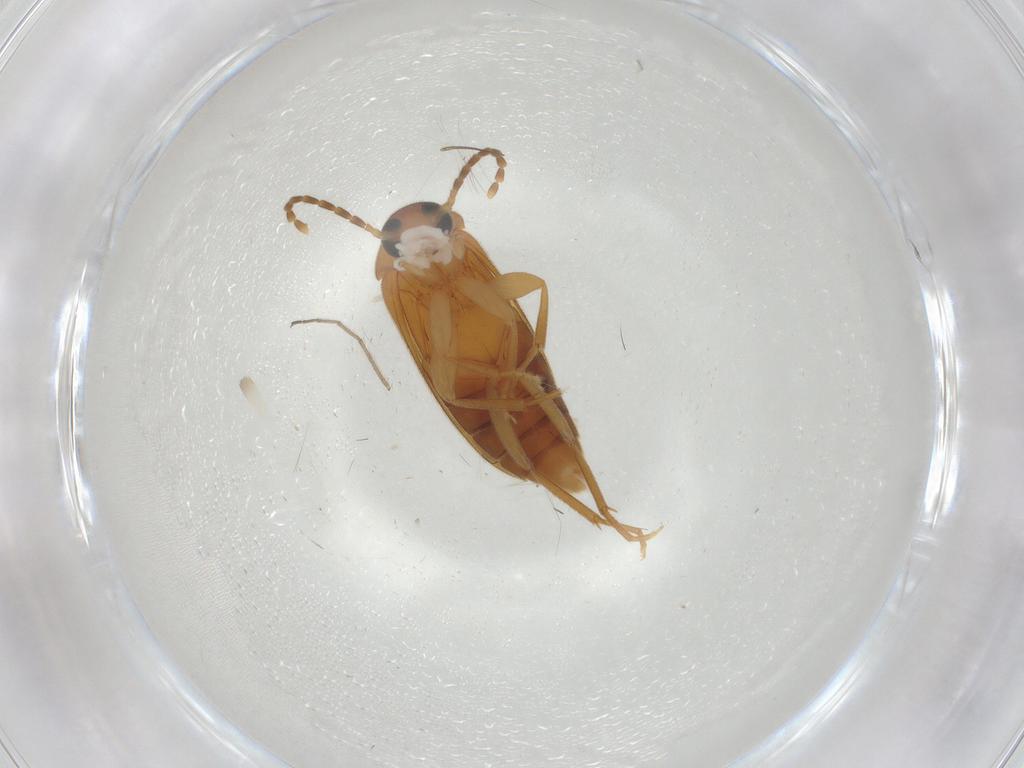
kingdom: Animalia
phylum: Arthropoda
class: Insecta
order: Coleoptera
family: Scraptiidae
